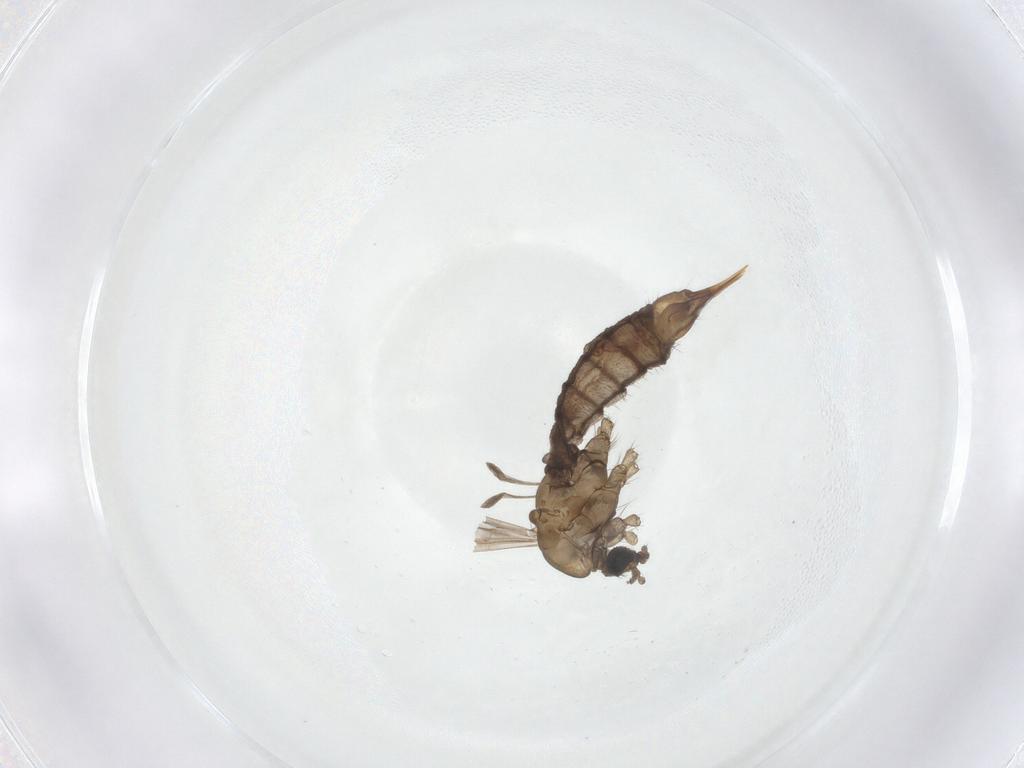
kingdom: Animalia
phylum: Arthropoda
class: Insecta
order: Diptera
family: Limoniidae
